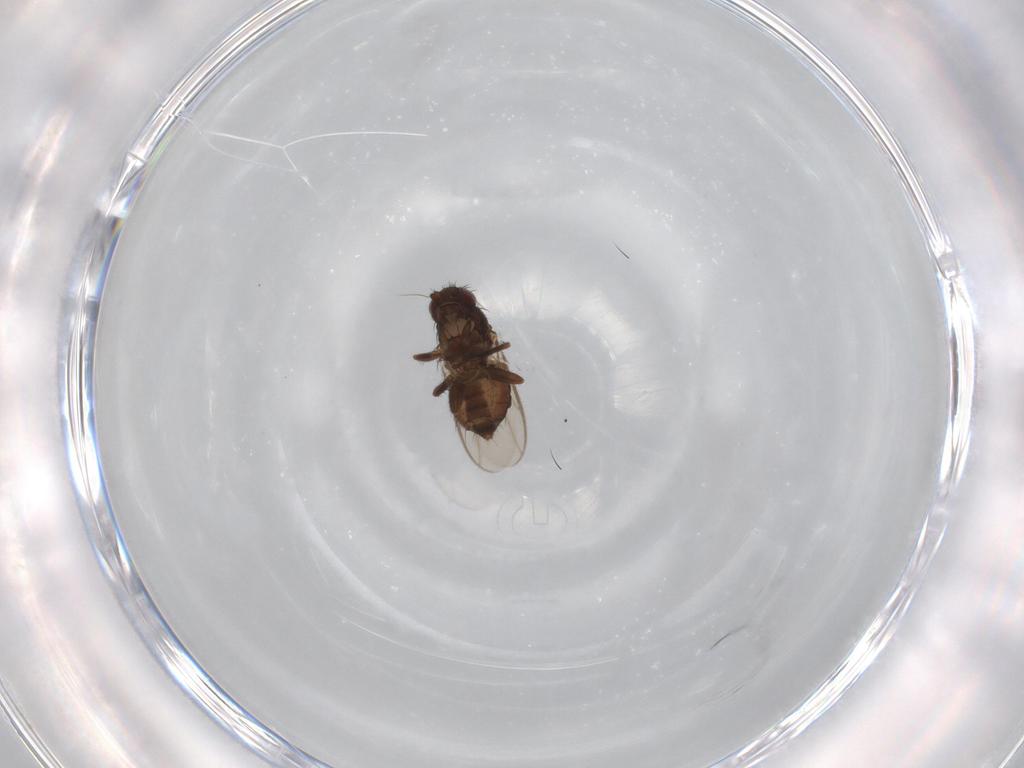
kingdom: Animalia
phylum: Arthropoda
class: Insecta
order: Diptera
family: Sphaeroceridae
